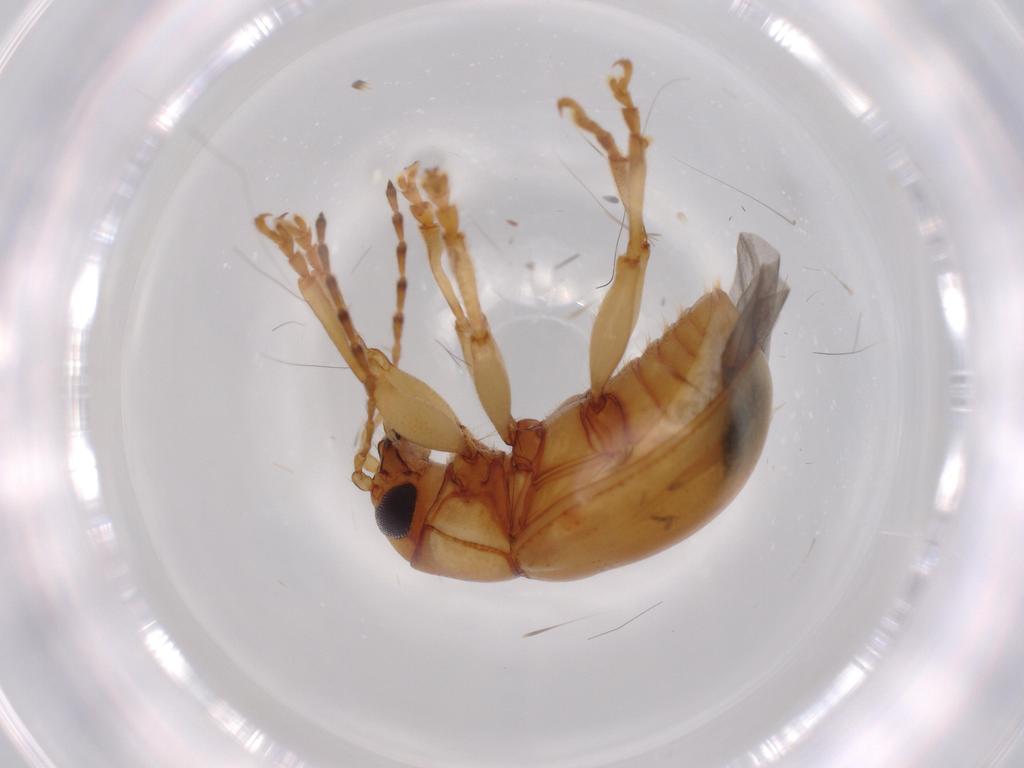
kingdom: Animalia
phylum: Arthropoda
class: Insecta
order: Coleoptera
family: Chrysomelidae
